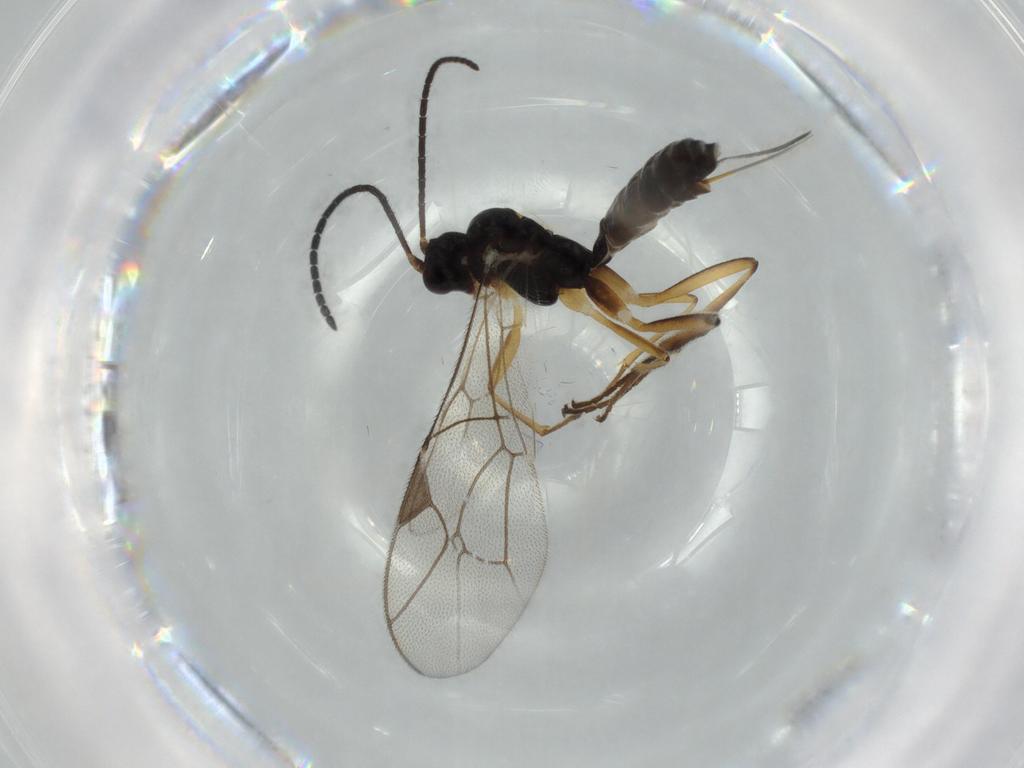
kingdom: Animalia
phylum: Arthropoda
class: Insecta
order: Hymenoptera
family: Ichneumonidae
